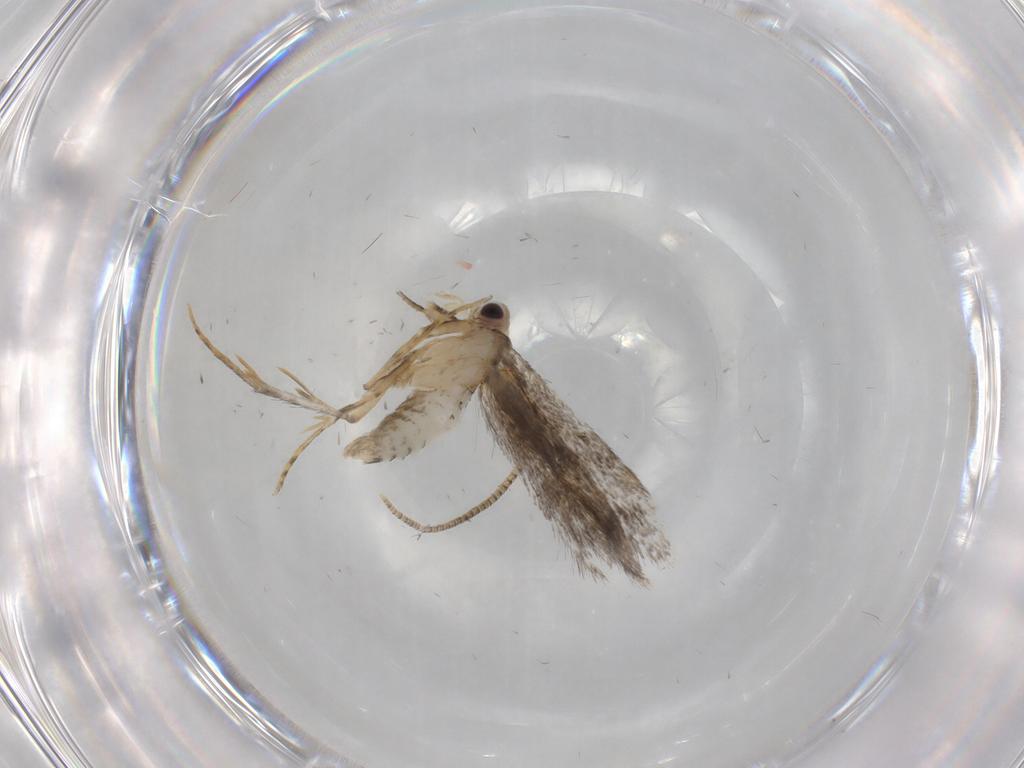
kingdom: Animalia
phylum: Arthropoda
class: Insecta
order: Lepidoptera
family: Tineidae
